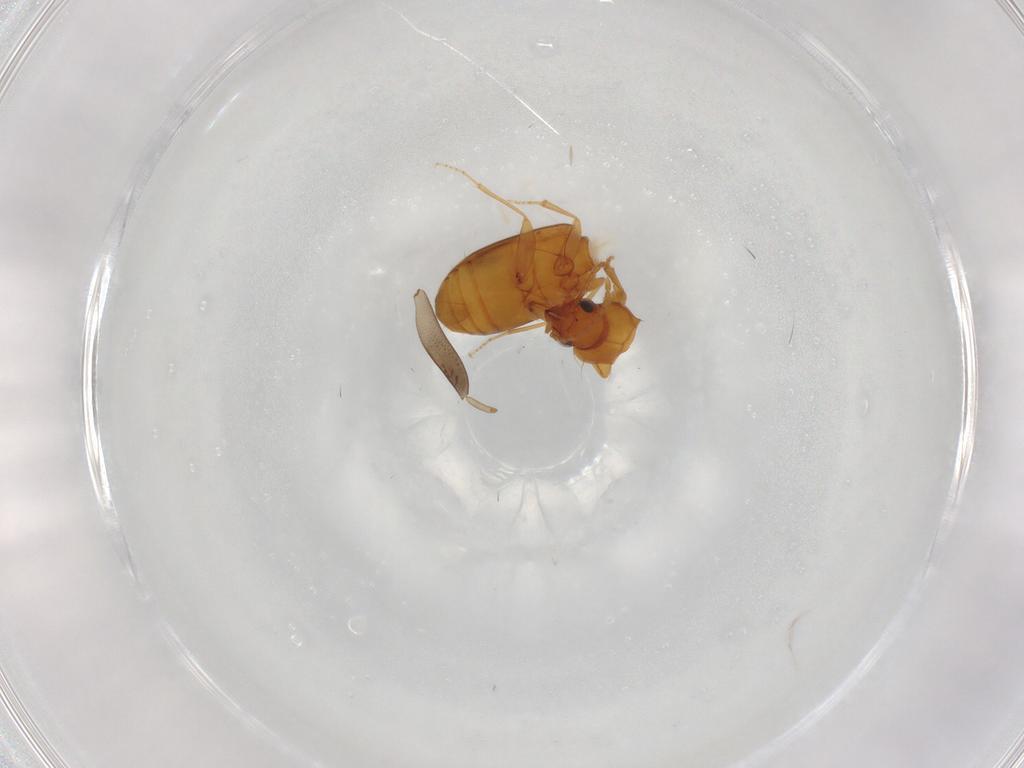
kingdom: Animalia
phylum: Arthropoda
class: Insecta
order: Coleoptera
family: Carabidae
